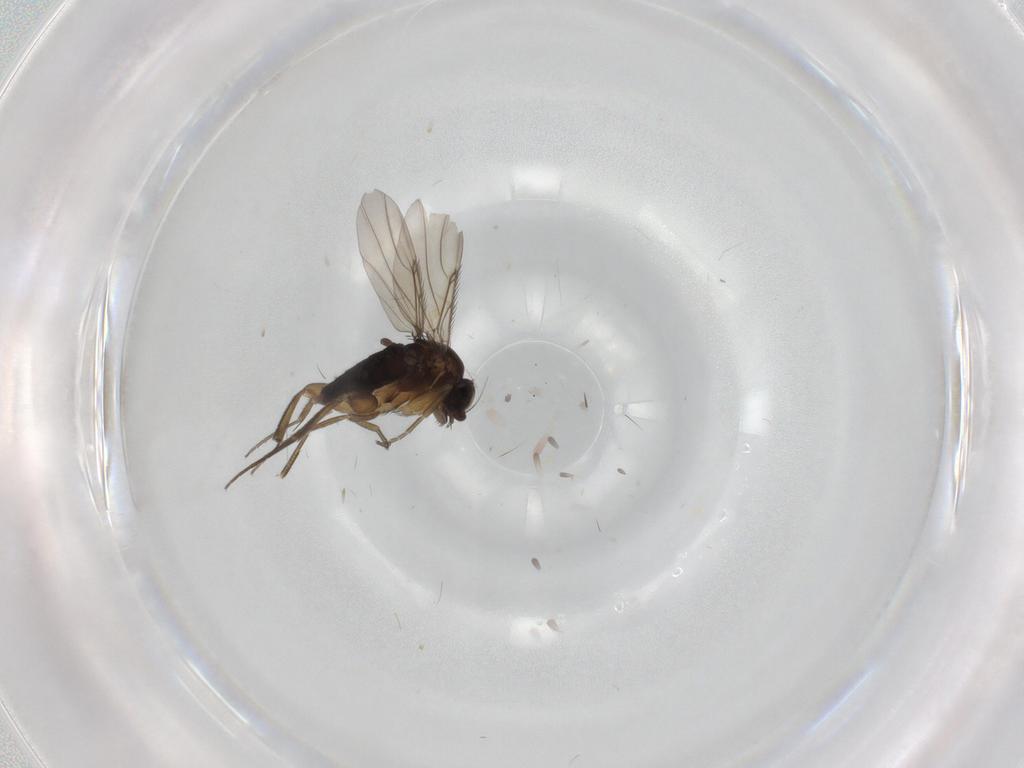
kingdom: Animalia
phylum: Arthropoda
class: Insecta
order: Diptera
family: Phoridae
